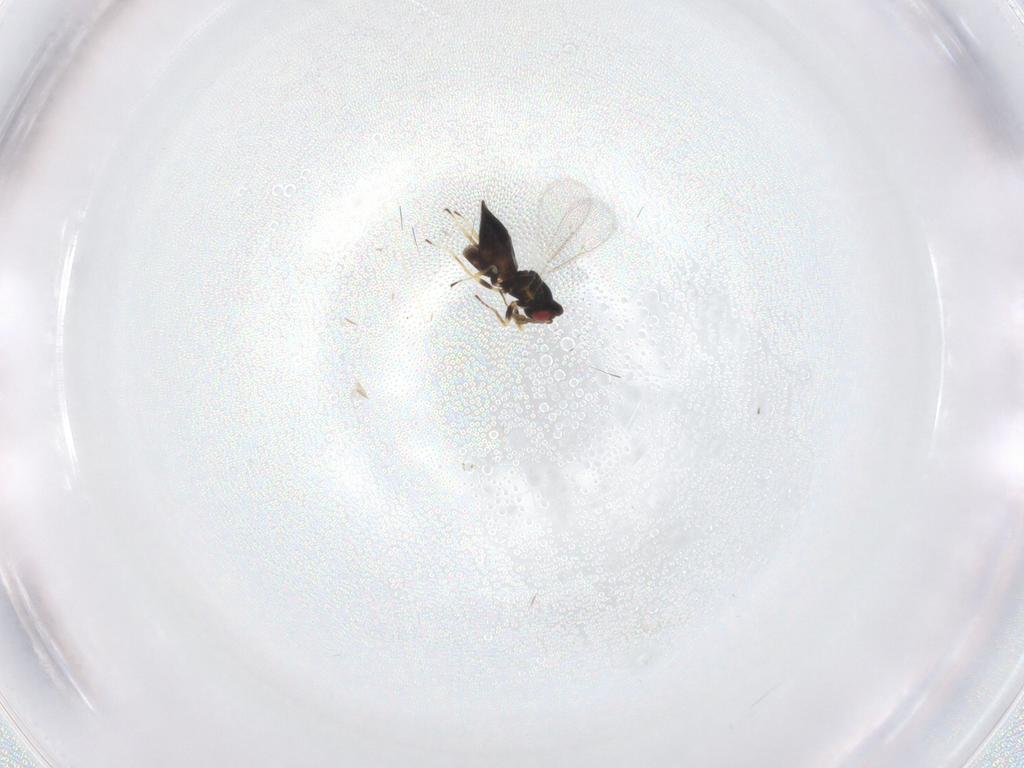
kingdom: Animalia
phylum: Arthropoda
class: Insecta
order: Hymenoptera
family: Eulophidae
